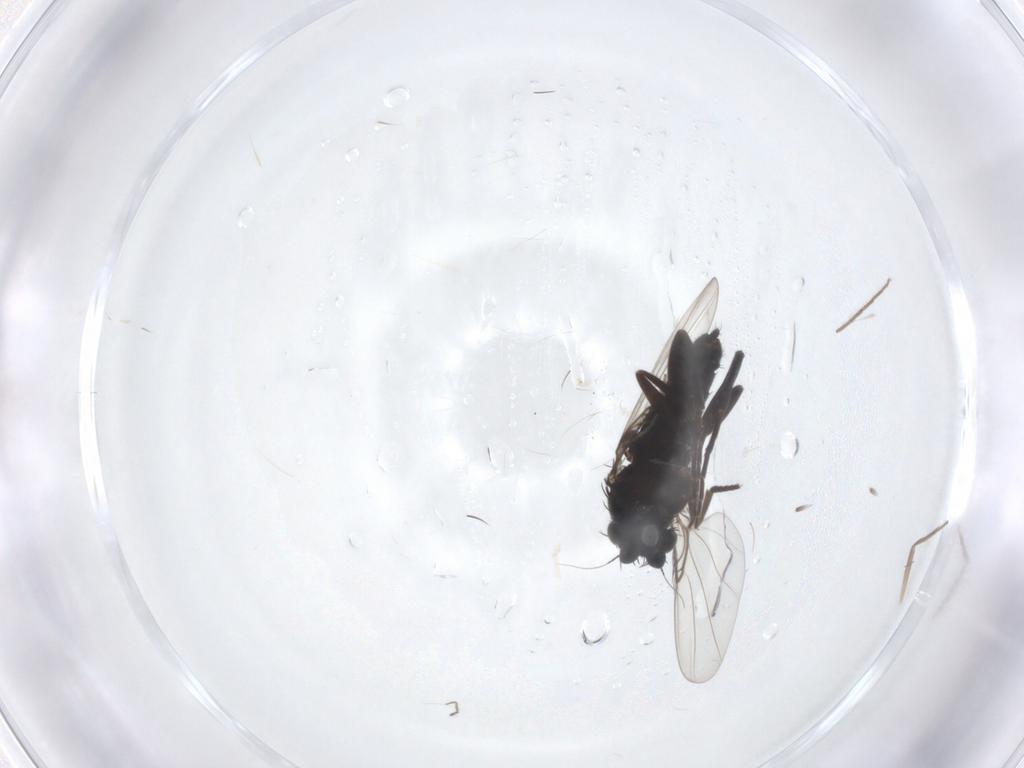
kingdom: Animalia
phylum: Arthropoda
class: Insecta
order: Diptera
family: Phoridae
